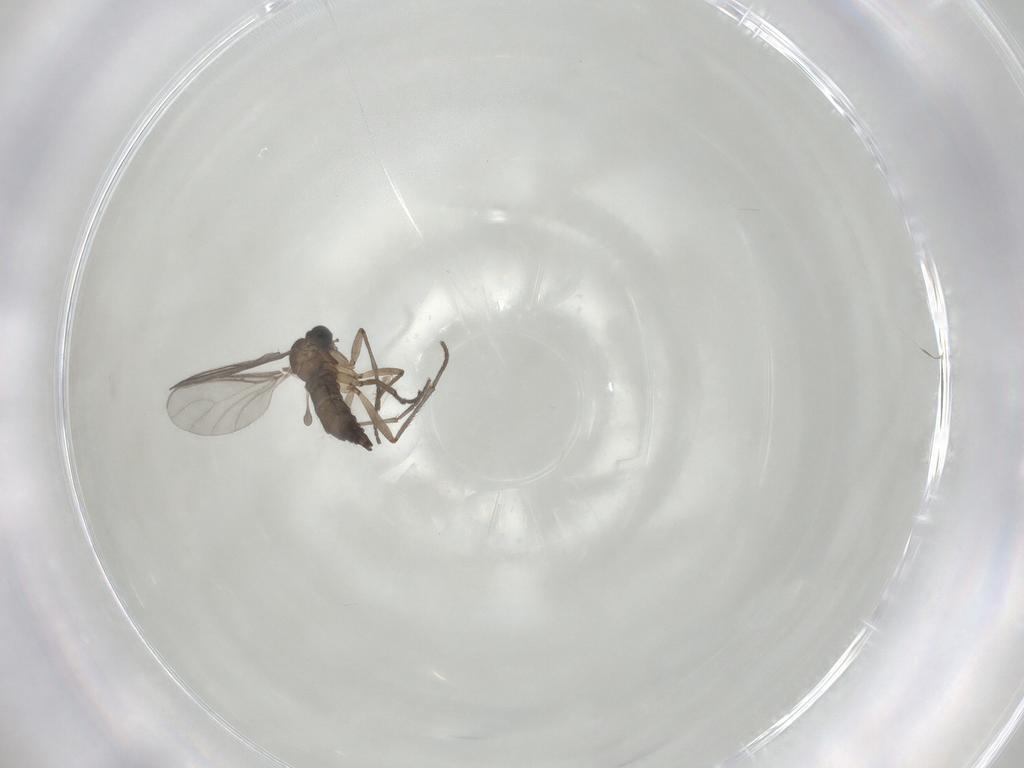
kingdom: Animalia
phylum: Arthropoda
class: Insecta
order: Diptera
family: Sciaridae
